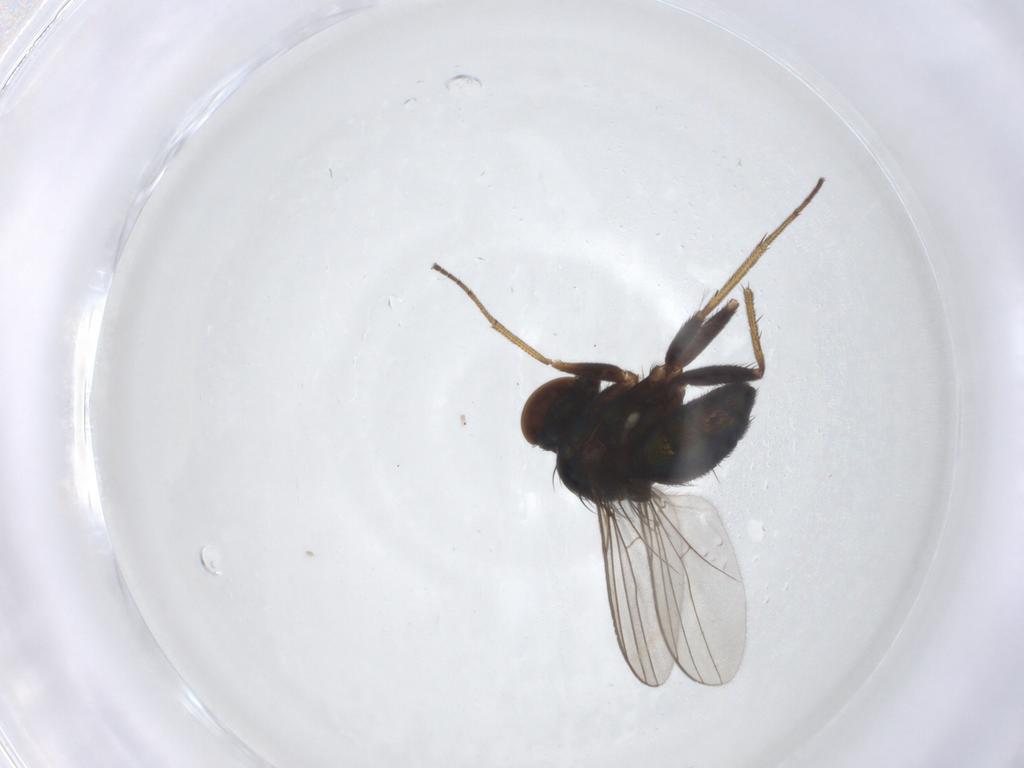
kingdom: Animalia
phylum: Arthropoda
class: Insecta
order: Diptera
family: Dolichopodidae
